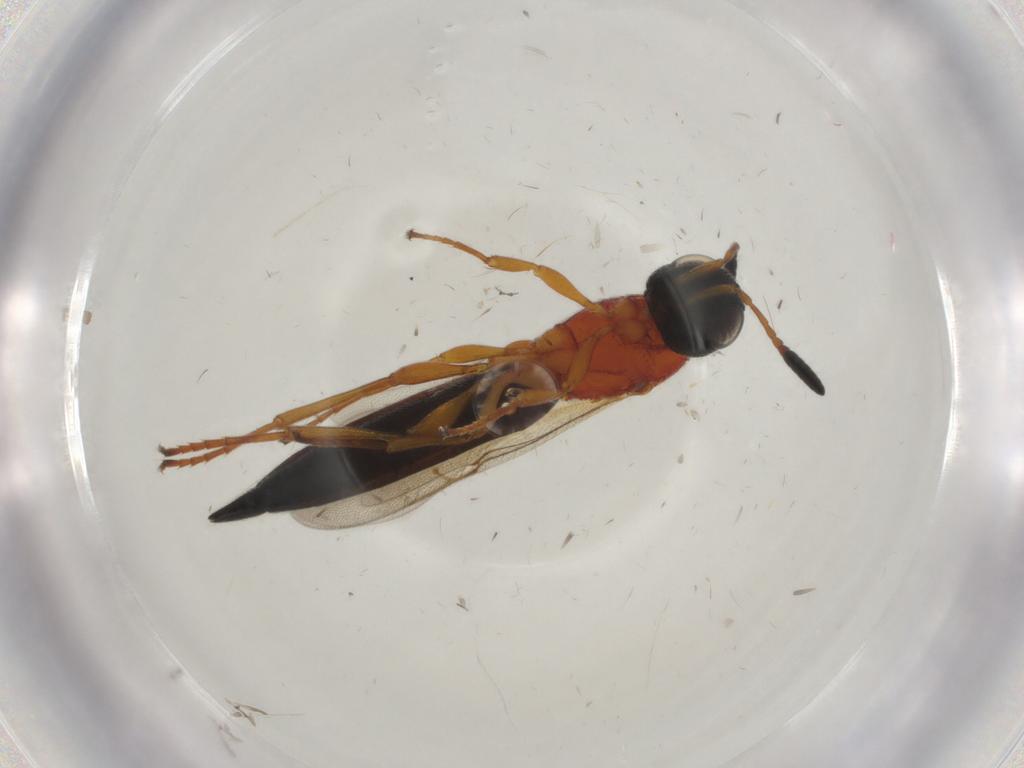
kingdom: Animalia
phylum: Arthropoda
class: Insecta
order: Hymenoptera
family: Scelionidae
